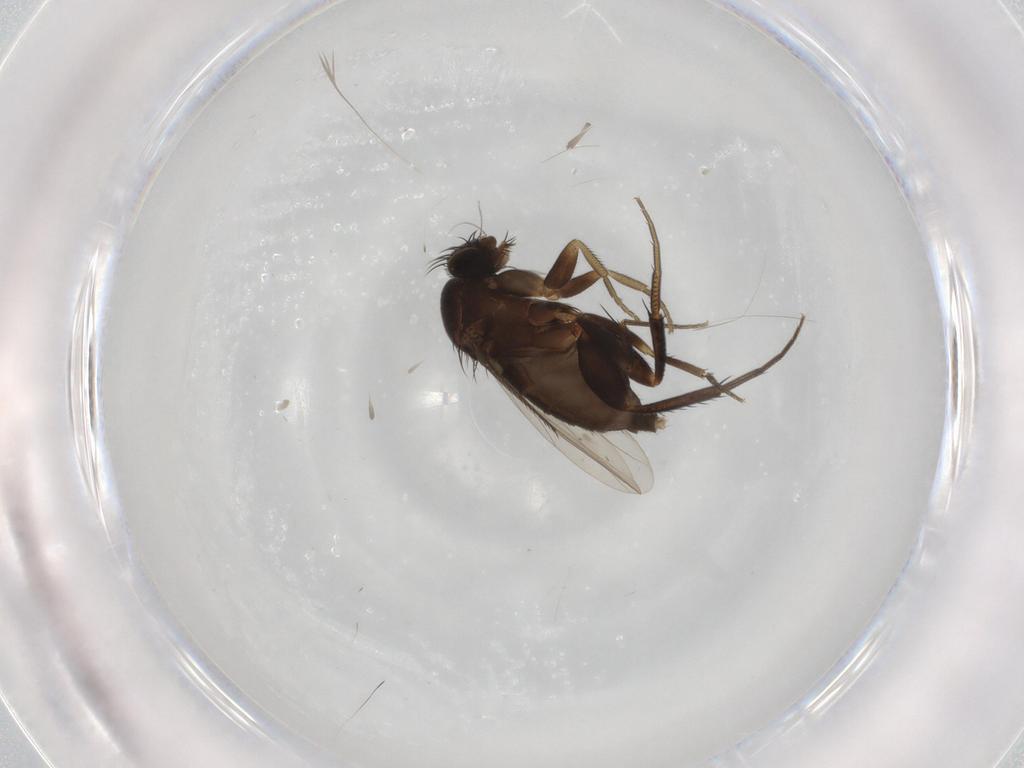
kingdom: Animalia
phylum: Arthropoda
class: Insecta
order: Diptera
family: Phoridae
